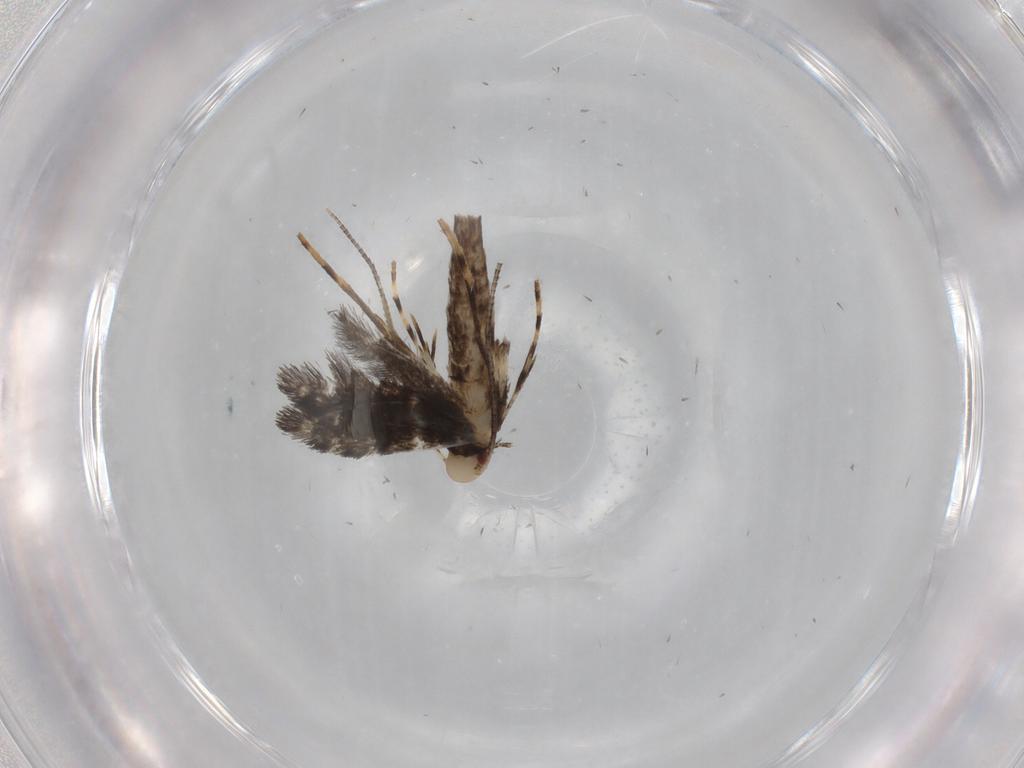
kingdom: Animalia
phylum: Arthropoda
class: Insecta
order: Lepidoptera
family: Gracillariidae
